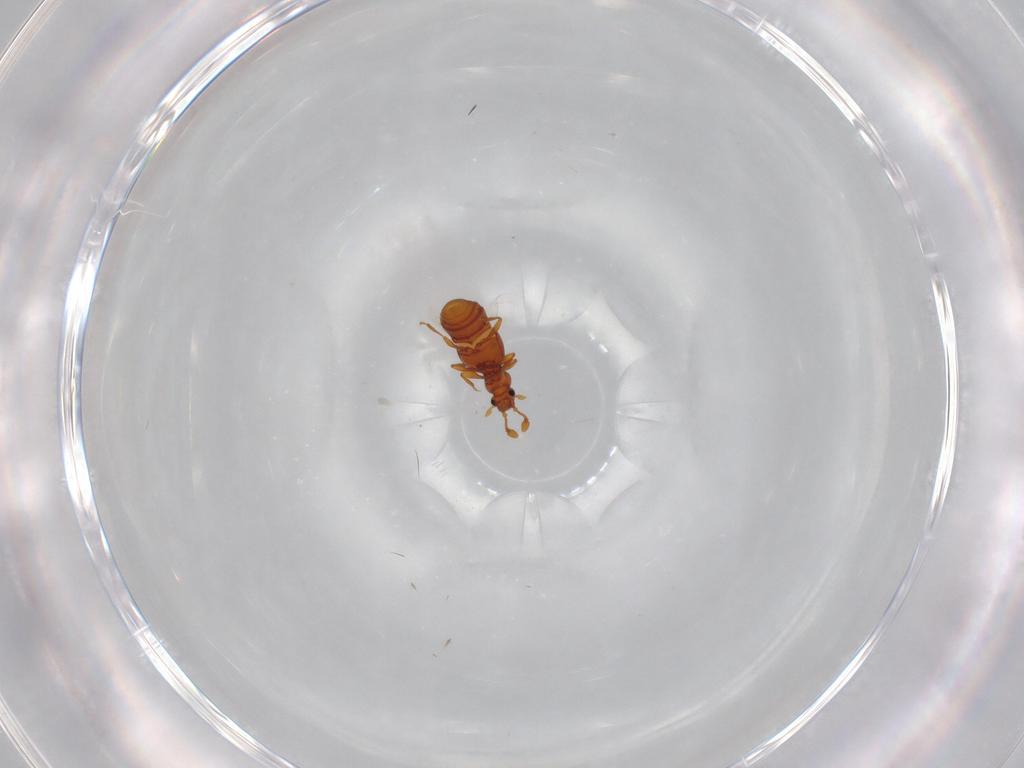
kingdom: Animalia
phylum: Arthropoda
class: Insecta
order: Coleoptera
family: Staphylinidae
